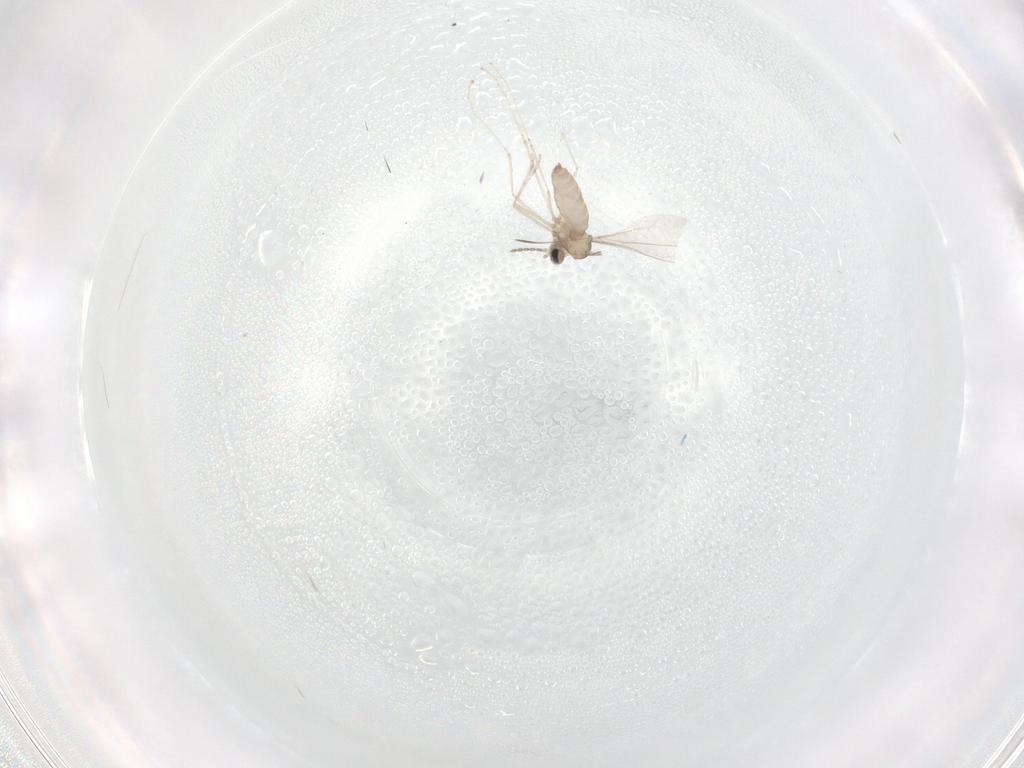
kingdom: Animalia
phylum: Arthropoda
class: Insecta
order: Diptera
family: Cecidomyiidae
